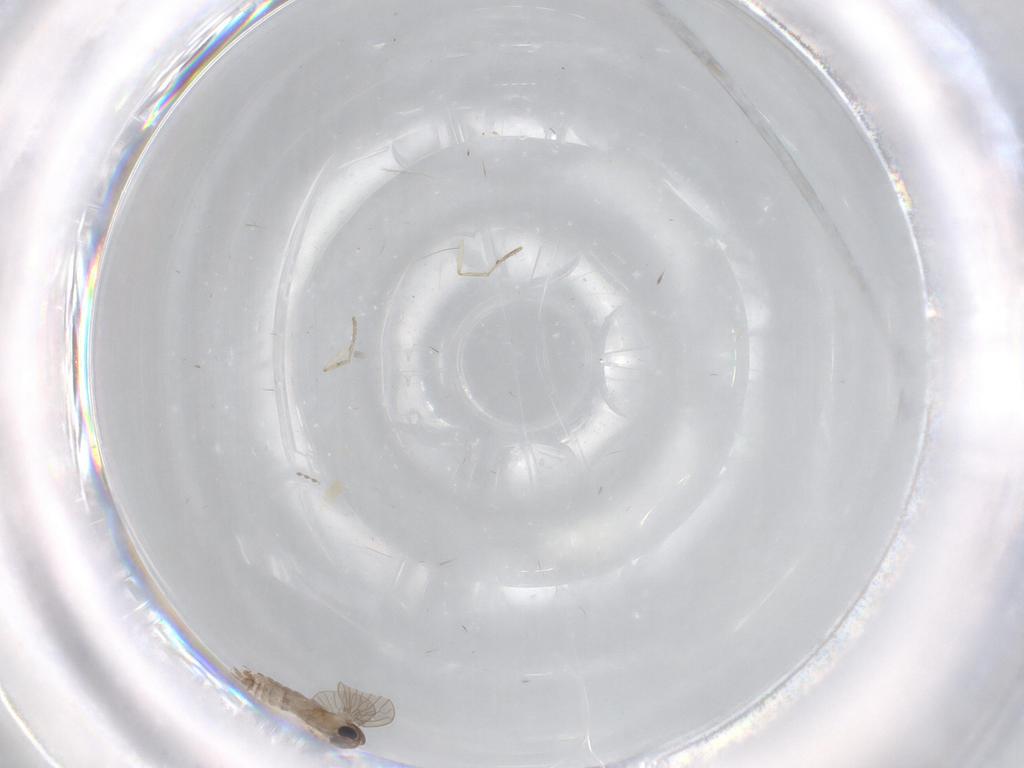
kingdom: Animalia
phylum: Arthropoda
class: Insecta
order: Diptera
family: Psychodidae
